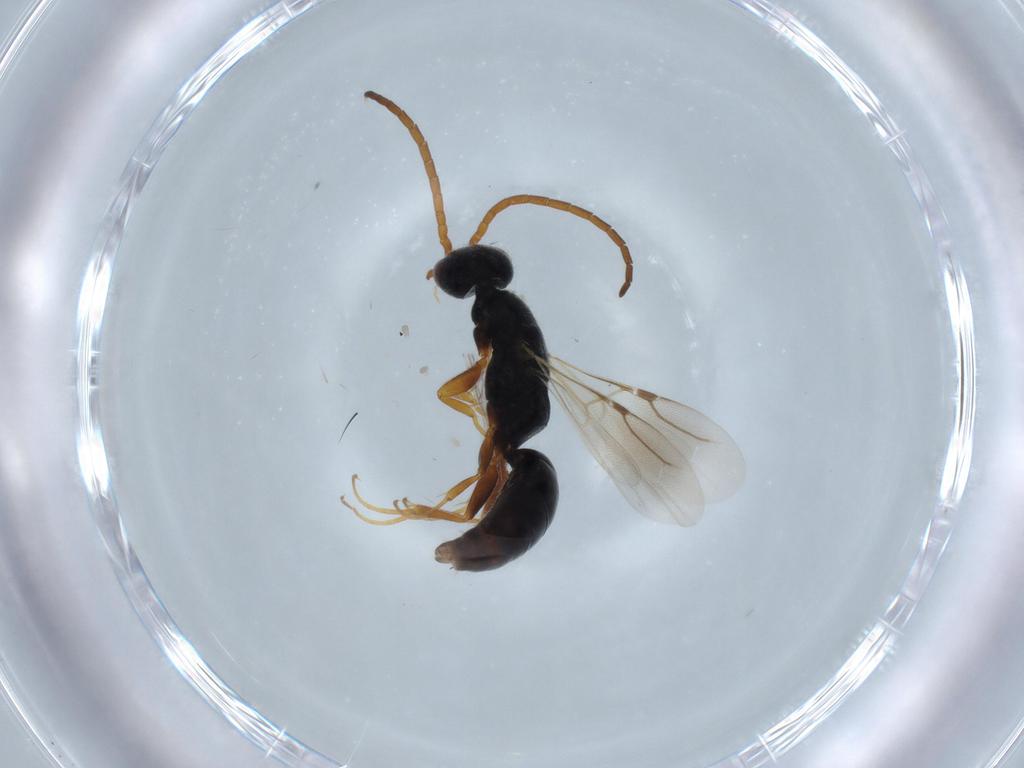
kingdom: Animalia
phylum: Arthropoda
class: Insecta
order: Hymenoptera
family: Bethylidae
